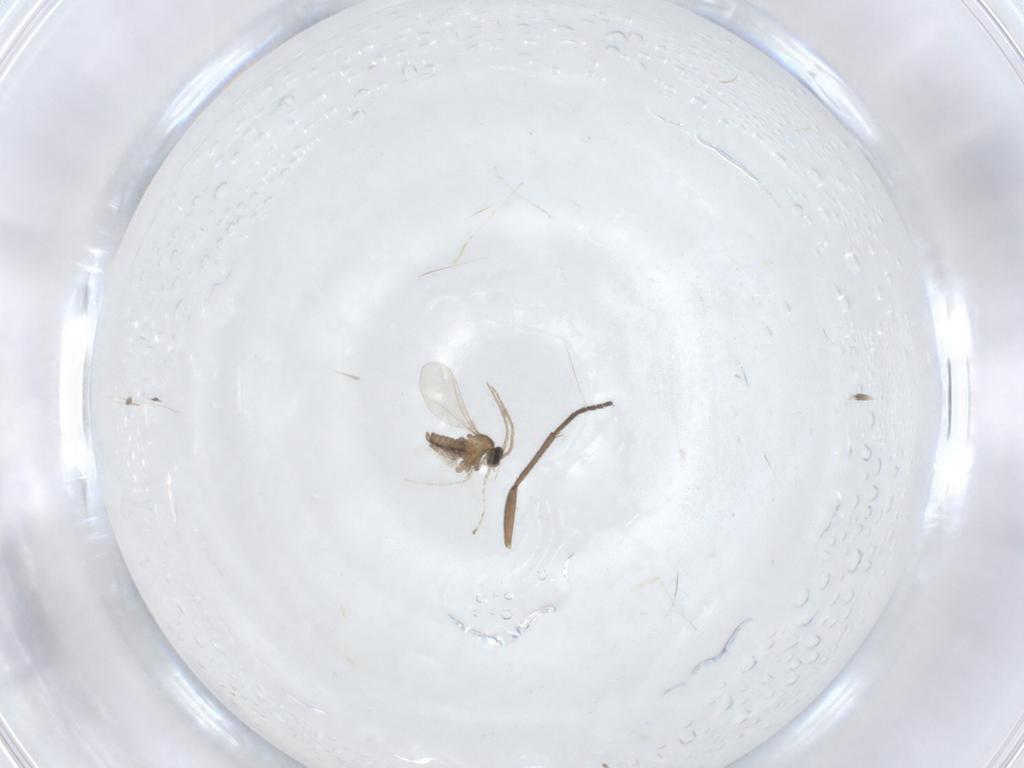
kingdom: Animalia
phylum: Arthropoda
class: Insecta
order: Diptera
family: Cecidomyiidae
